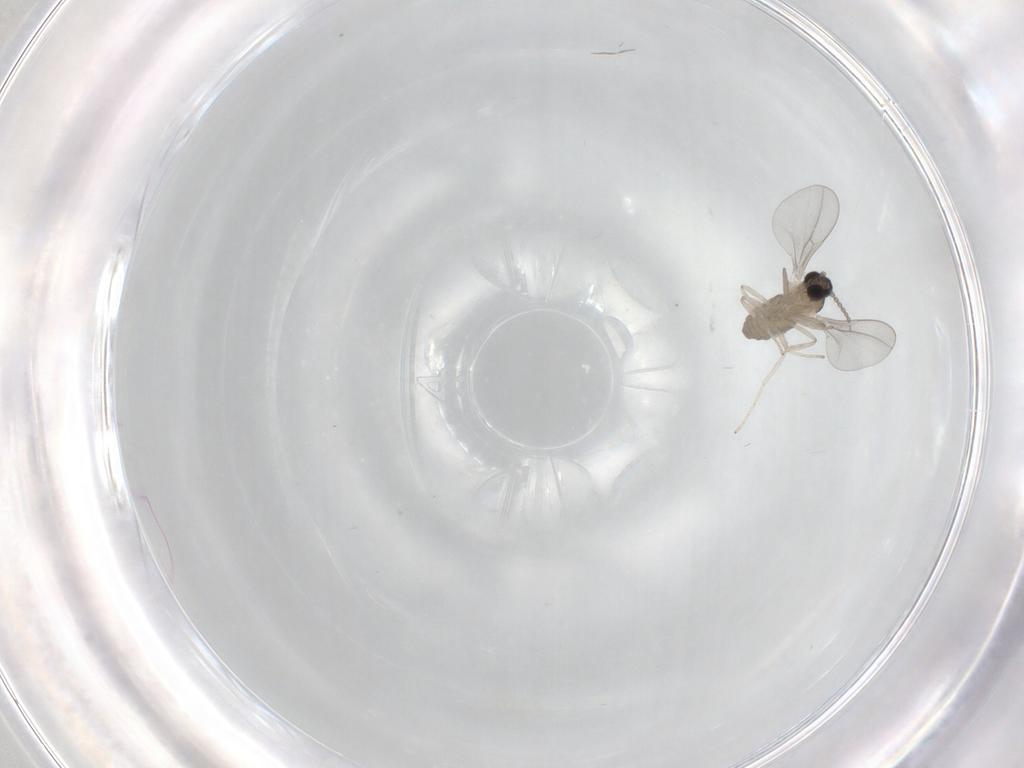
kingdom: Animalia
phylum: Arthropoda
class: Insecta
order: Diptera
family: Cecidomyiidae
